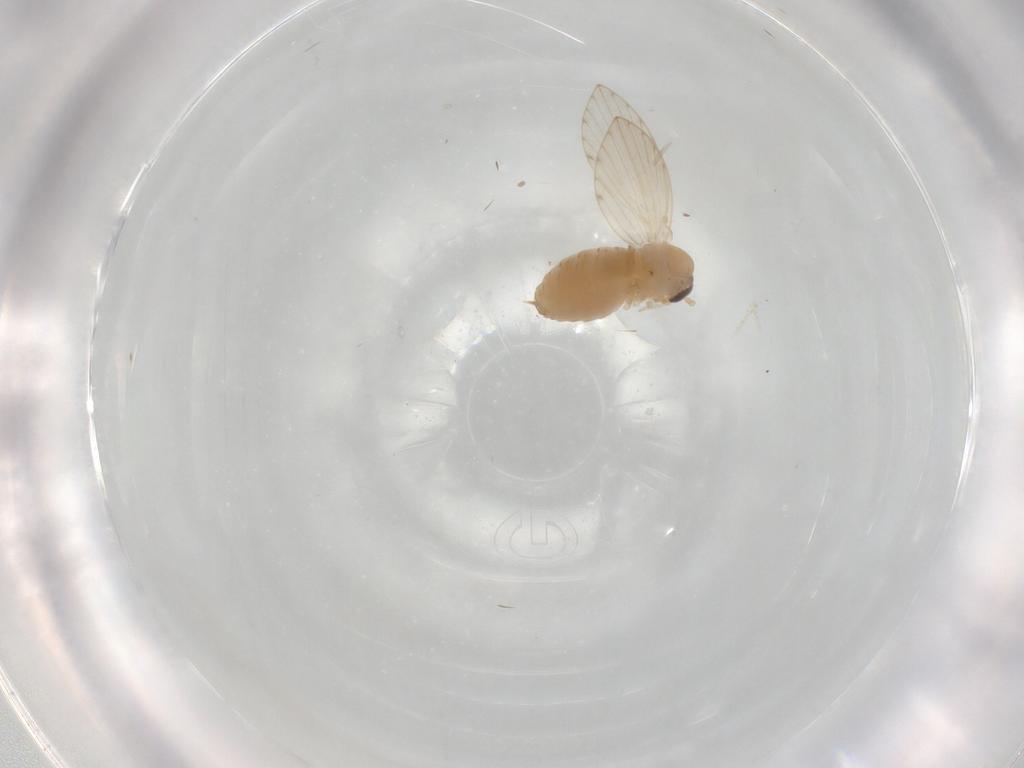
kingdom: Animalia
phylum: Arthropoda
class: Insecta
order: Diptera
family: Psychodidae
